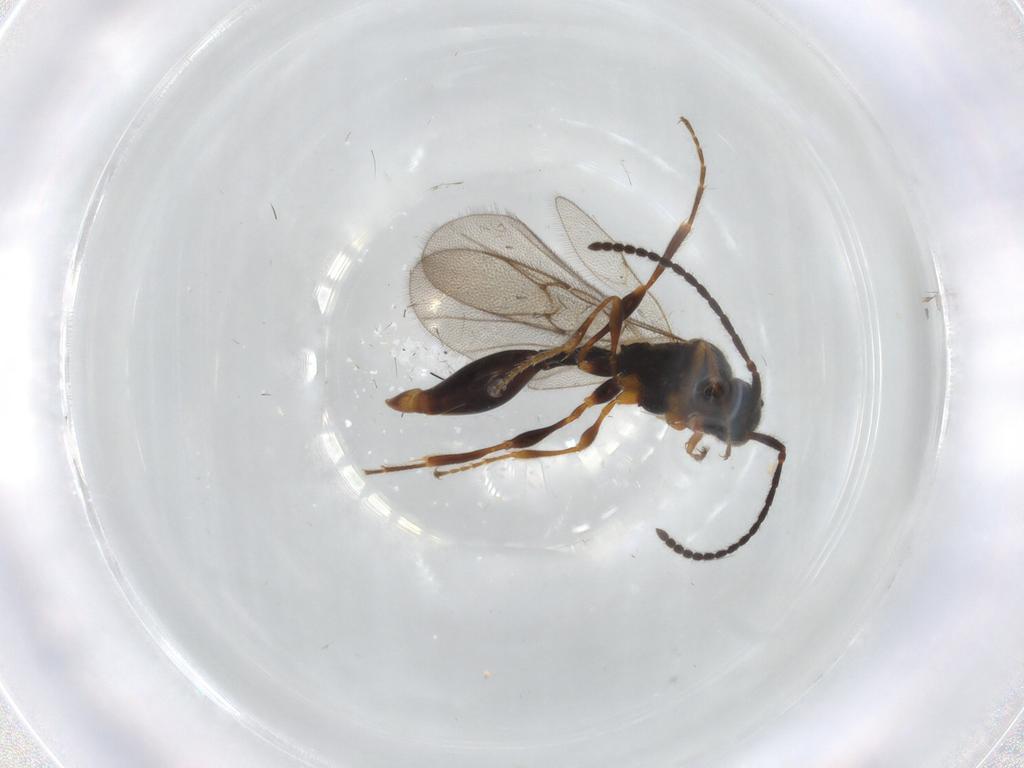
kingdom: Animalia
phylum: Arthropoda
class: Insecta
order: Hymenoptera
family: Diapriidae
